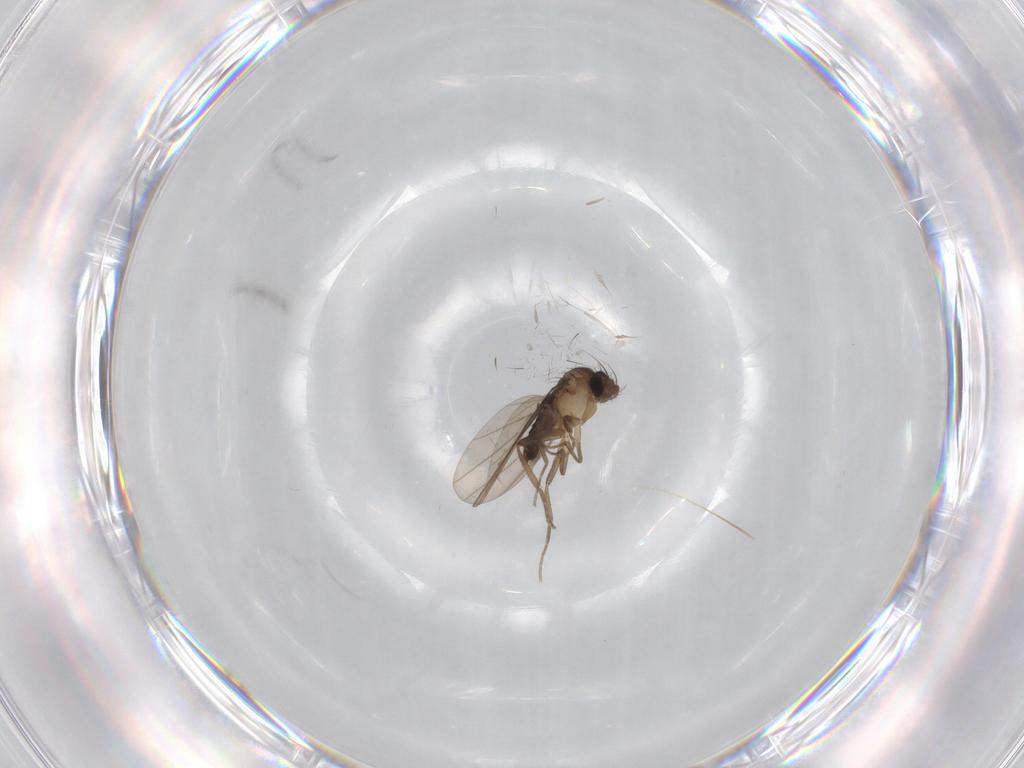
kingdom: Animalia
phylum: Arthropoda
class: Insecta
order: Diptera
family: Phoridae
